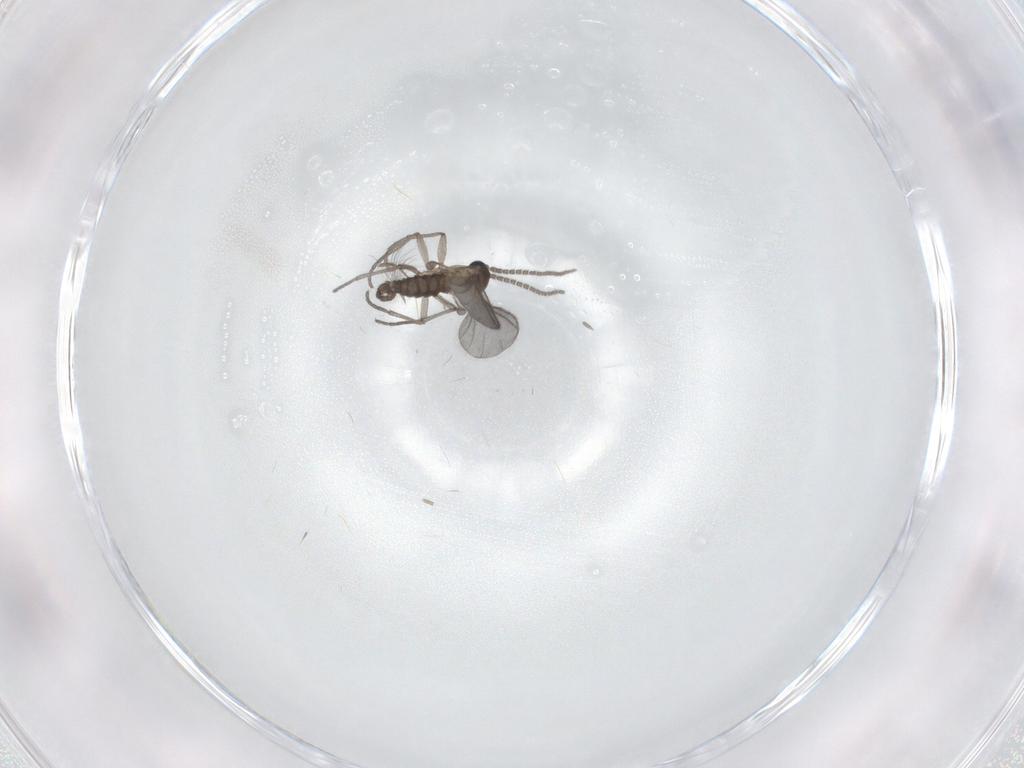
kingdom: Animalia
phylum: Arthropoda
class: Insecta
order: Diptera
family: Sciaridae
